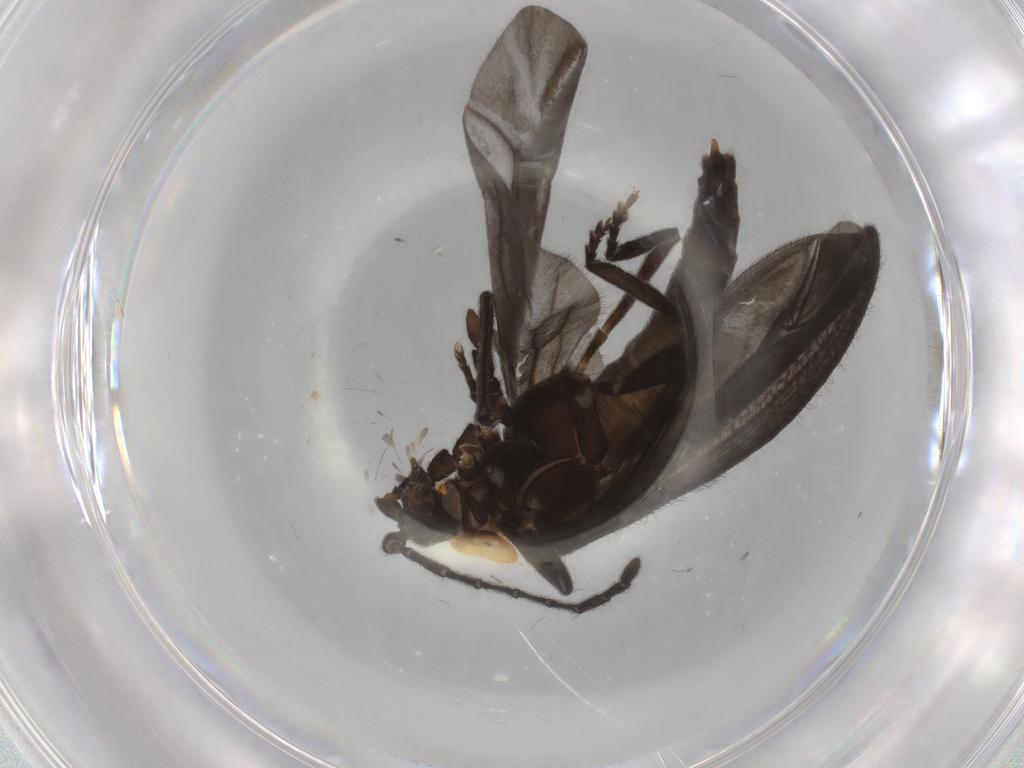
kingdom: Animalia
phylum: Arthropoda
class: Insecta
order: Coleoptera
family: Lycidae
